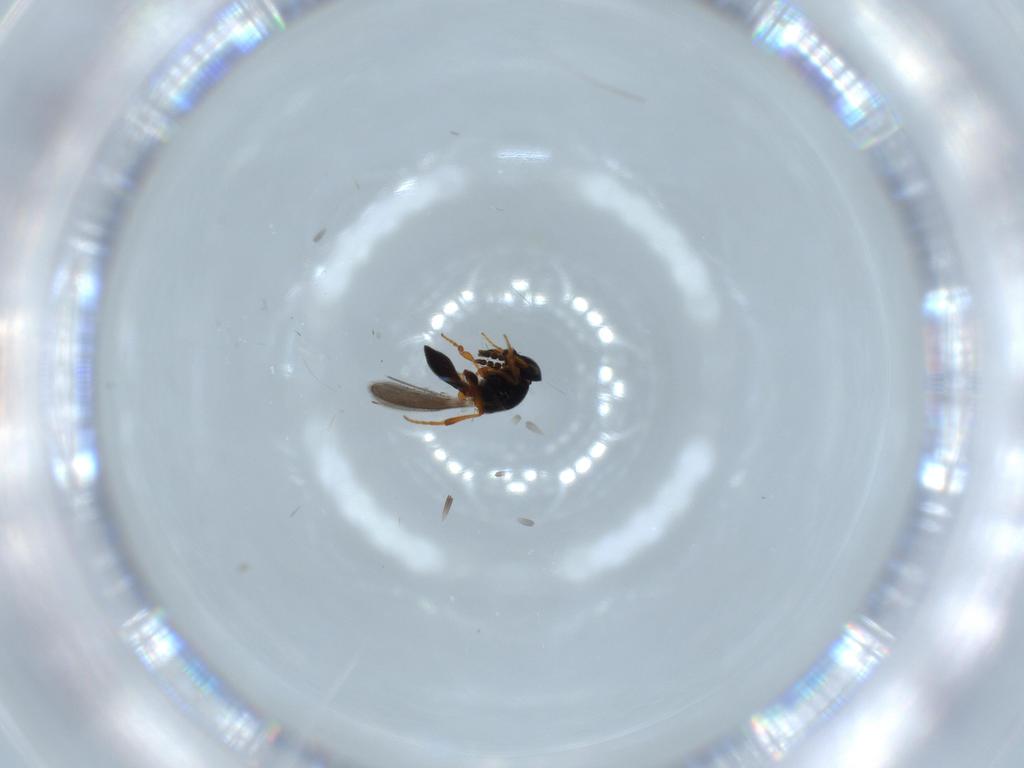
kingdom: Animalia
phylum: Arthropoda
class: Insecta
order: Hymenoptera
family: Platygastridae
